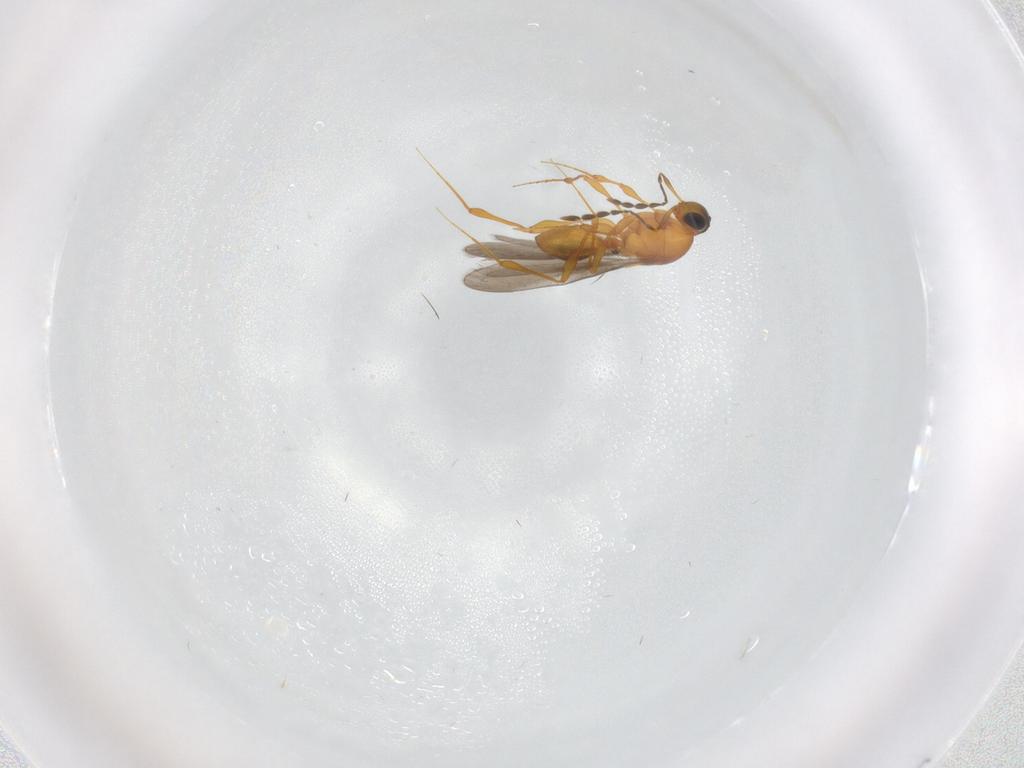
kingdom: Animalia
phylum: Arthropoda
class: Insecta
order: Hymenoptera
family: Platygastridae
